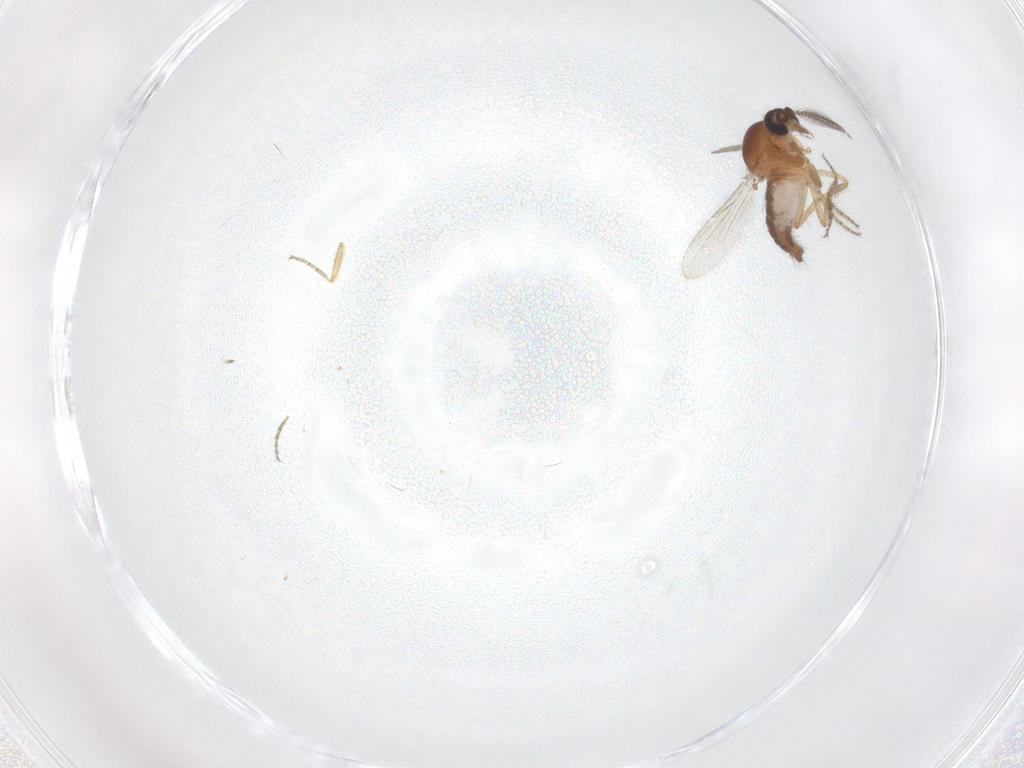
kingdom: Animalia
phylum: Arthropoda
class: Insecta
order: Diptera
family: Ceratopogonidae
